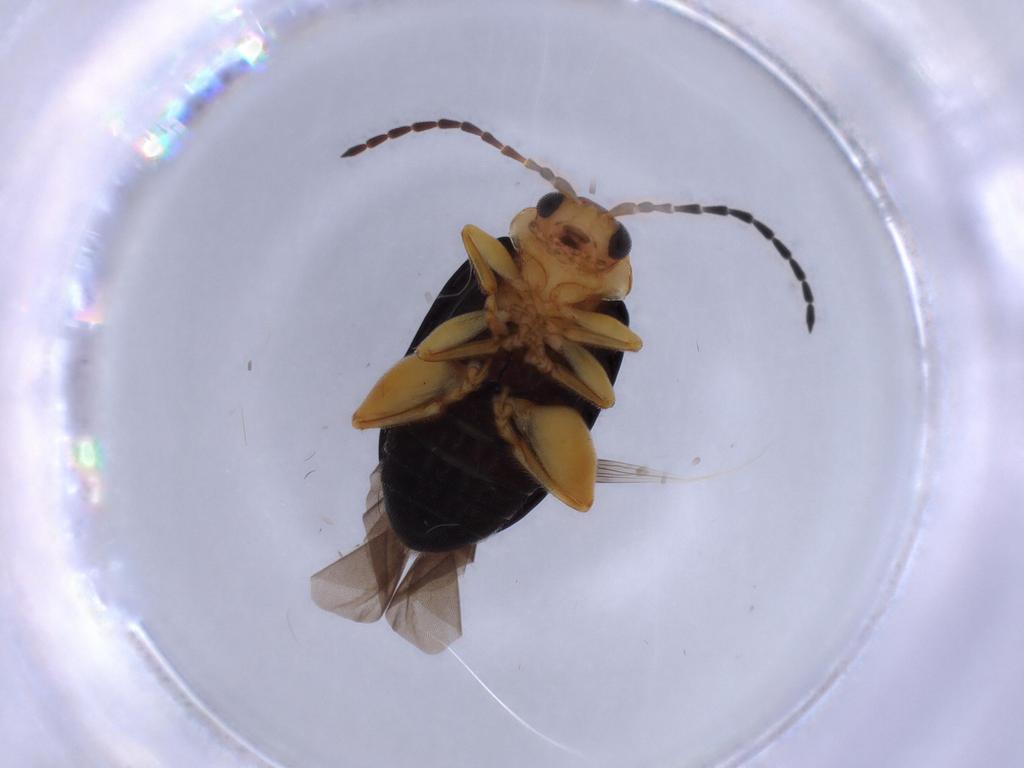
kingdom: Animalia
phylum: Arthropoda
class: Insecta
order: Coleoptera
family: Chrysomelidae
